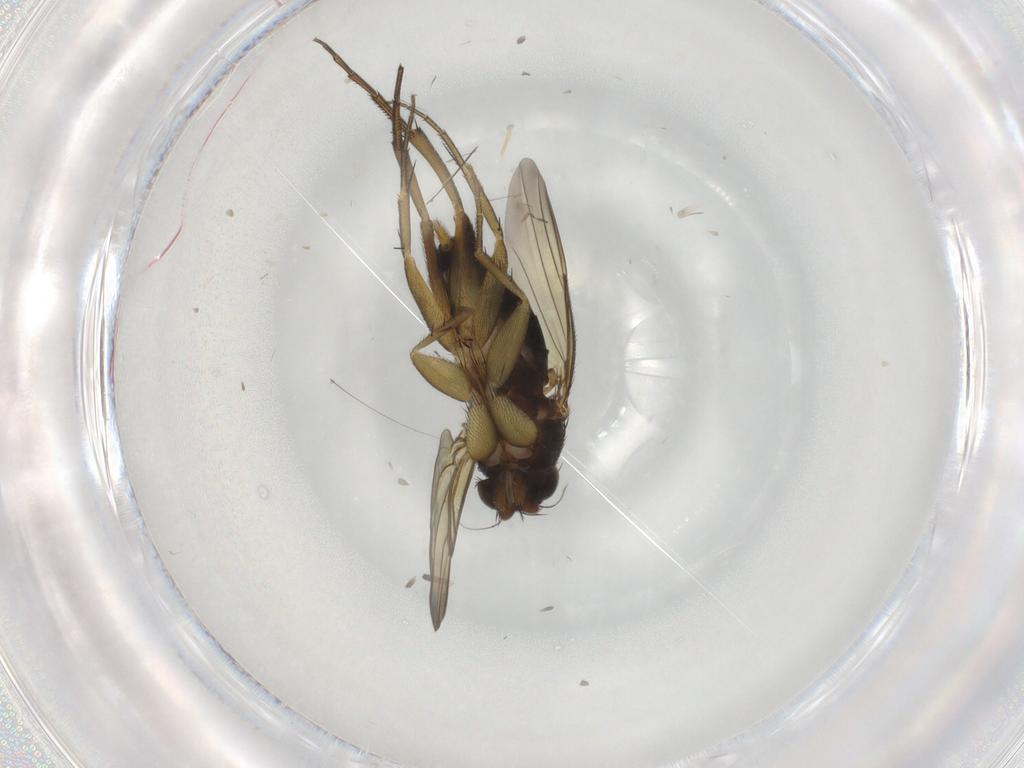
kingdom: Animalia
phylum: Arthropoda
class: Insecta
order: Diptera
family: Phoridae
